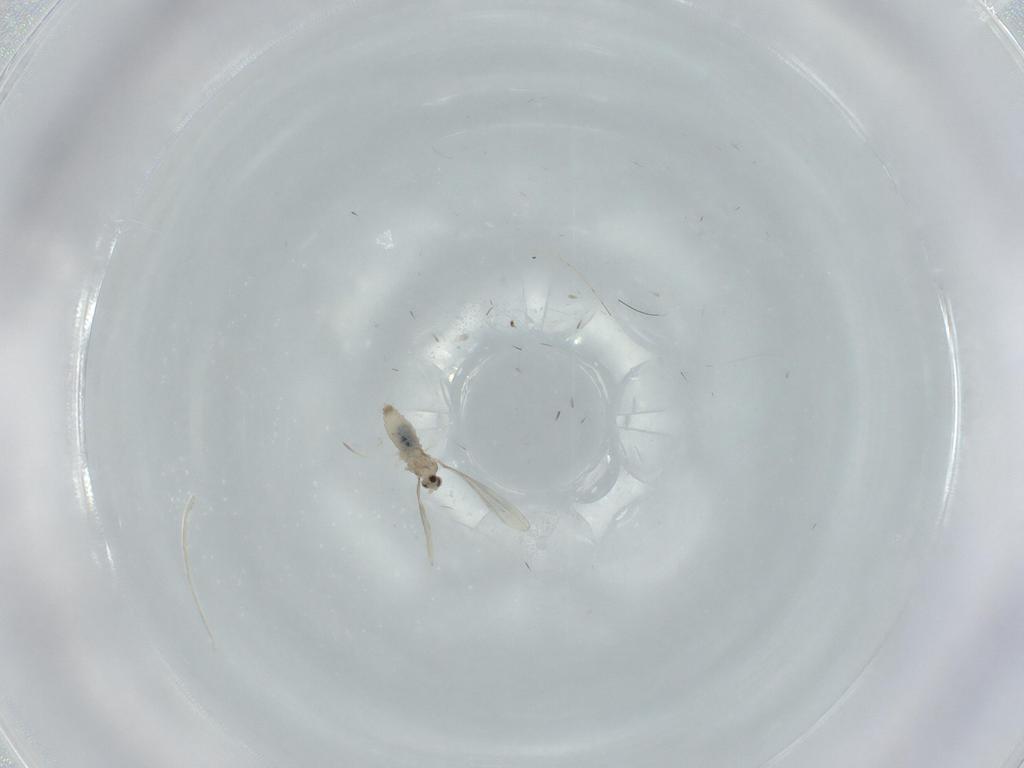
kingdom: Animalia
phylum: Arthropoda
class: Insecta
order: Diptera
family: Cecidomyiidae
